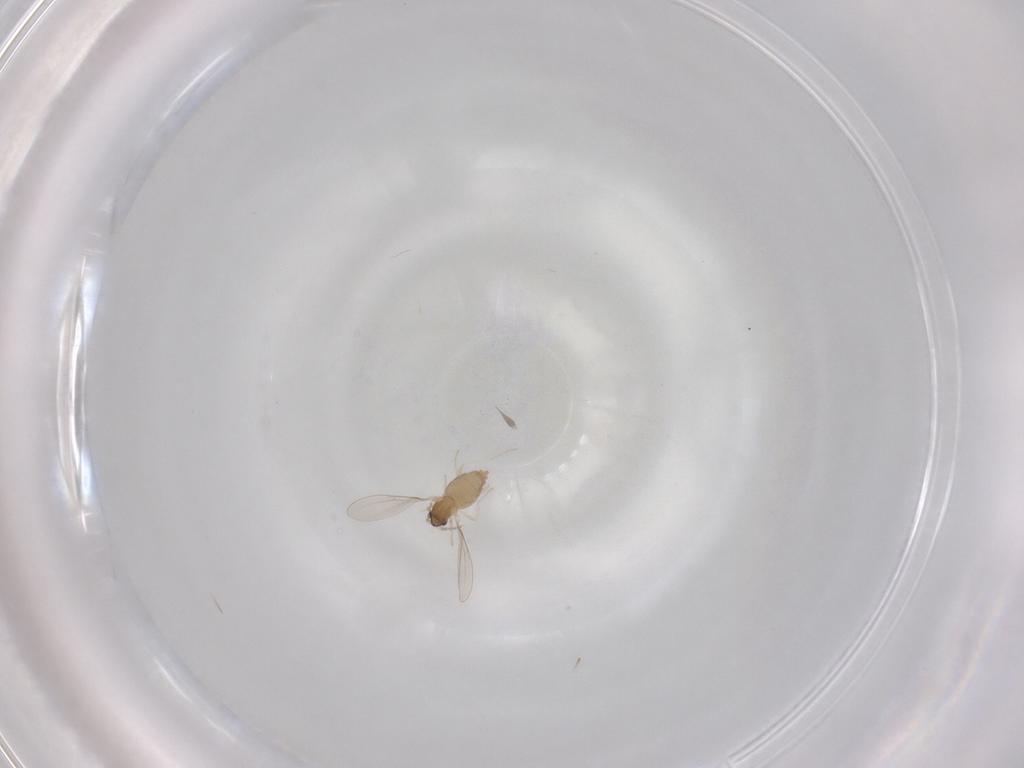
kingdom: Animalia
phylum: Arthropoda
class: Insecta
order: Diptera
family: Cecidomyiidae
